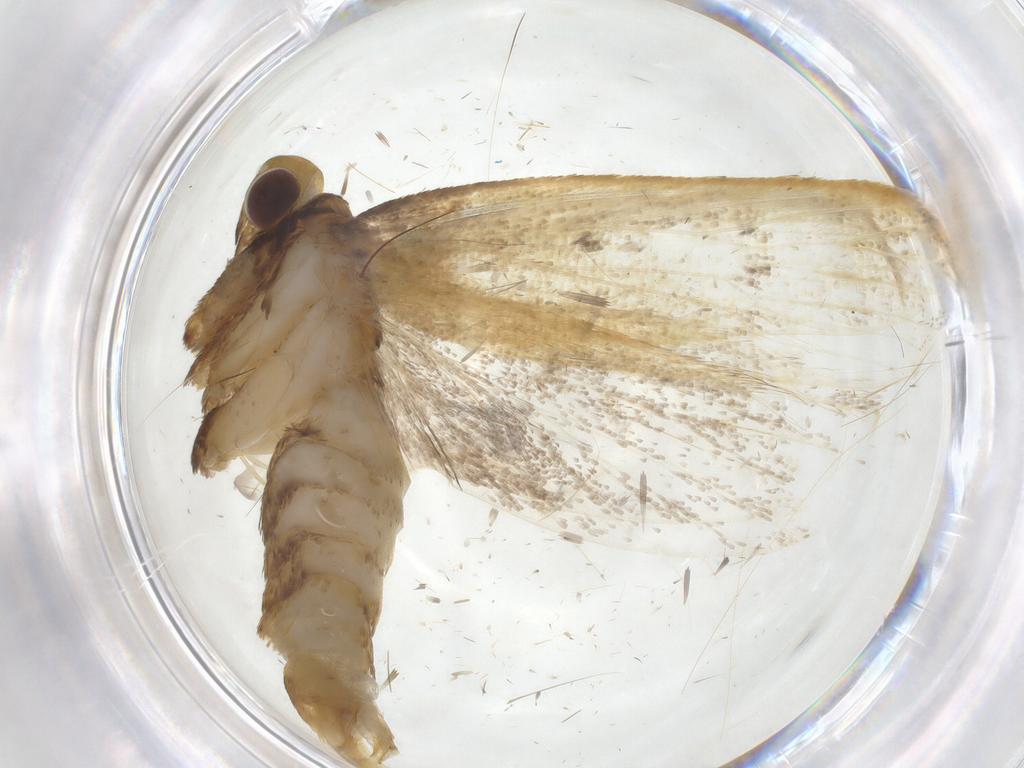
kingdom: Animalia
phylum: Arthropoda
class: Insecta
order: Lepidoptera
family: Lecithoceridae
